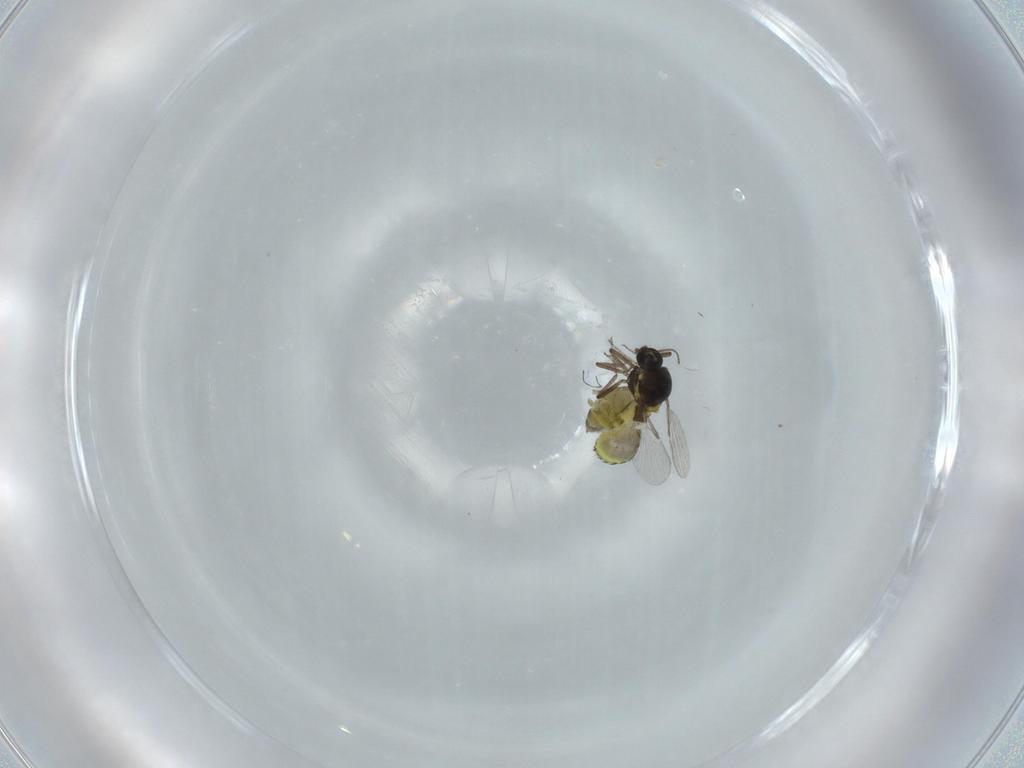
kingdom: Animalia
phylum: Arthropoda
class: Insecta
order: Diptera
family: Ceratopogonidae
